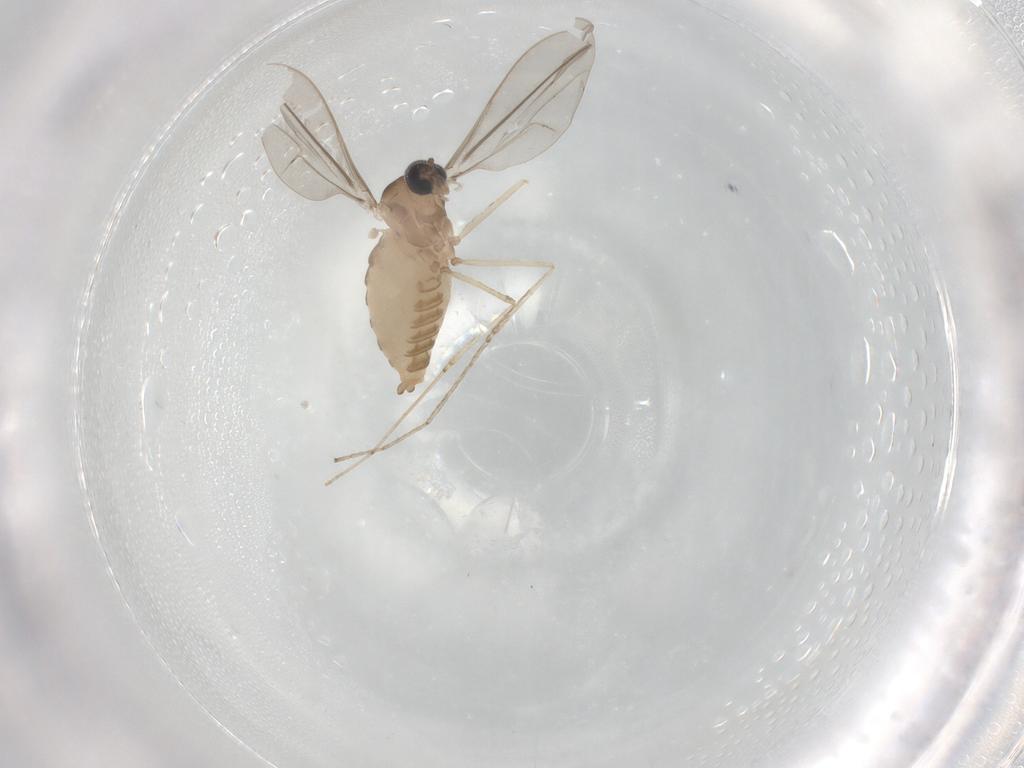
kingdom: Animalia
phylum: Arthropoda
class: Insecta
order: Diptera
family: Cecidomyiidae
